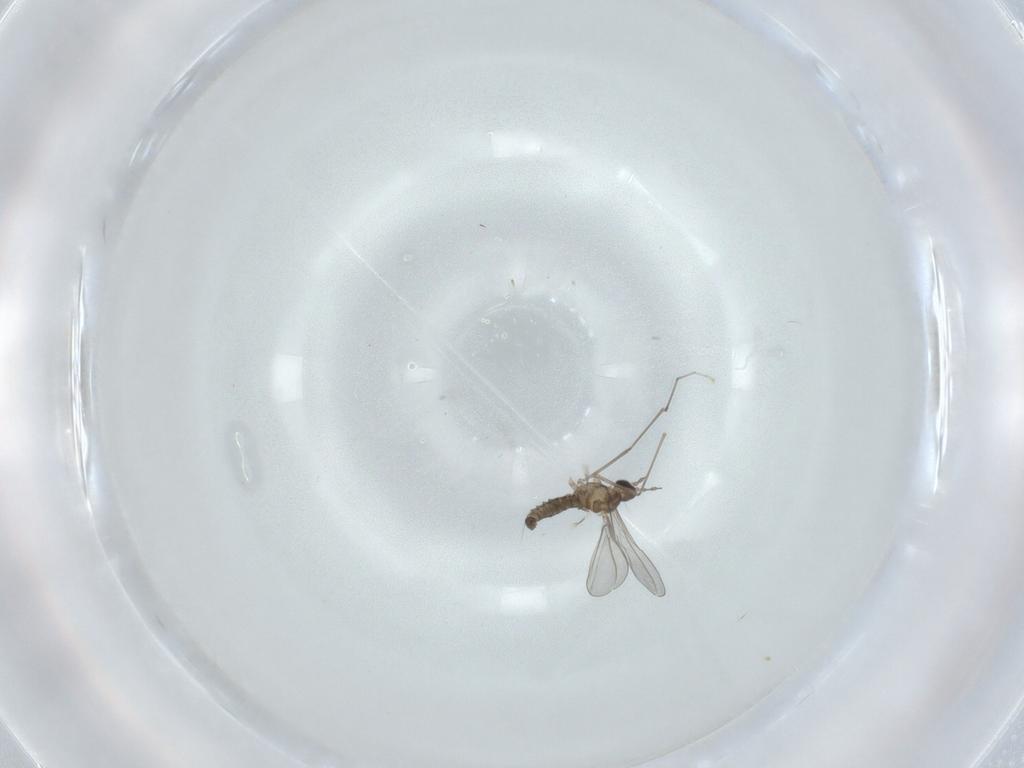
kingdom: Animalia
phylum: Arthropoda
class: Insecta
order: Diptera
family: Cecidomyiidae
